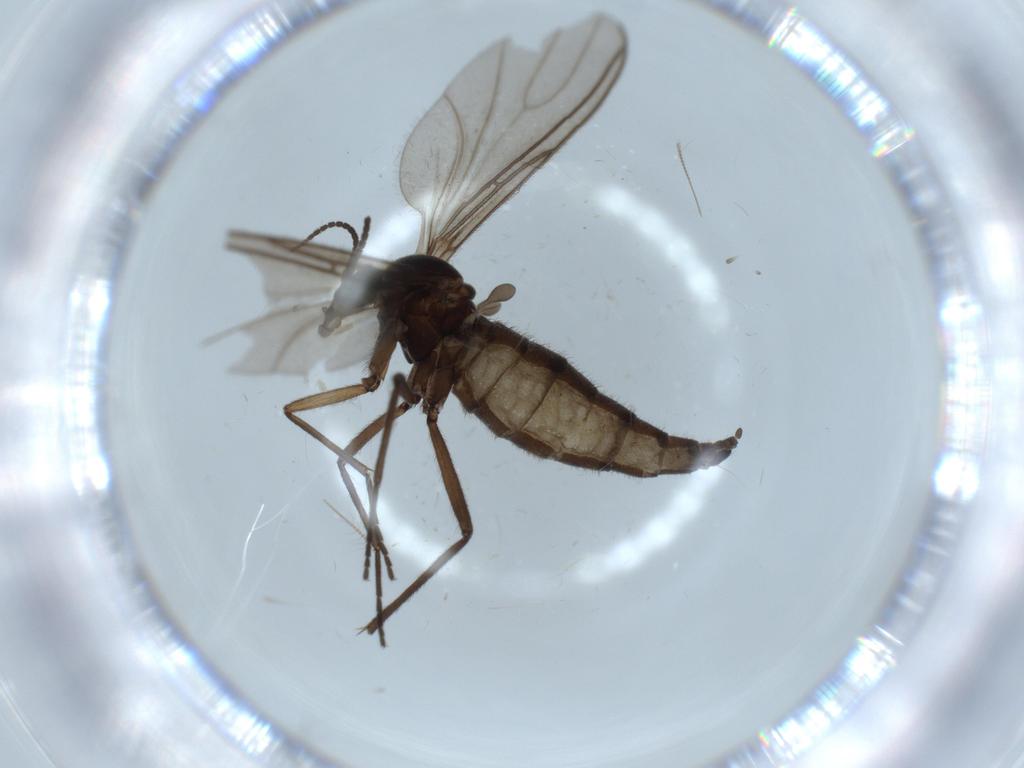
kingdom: Animalia
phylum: Arthropoda
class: Insecta
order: Diptera
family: Sciaridae
